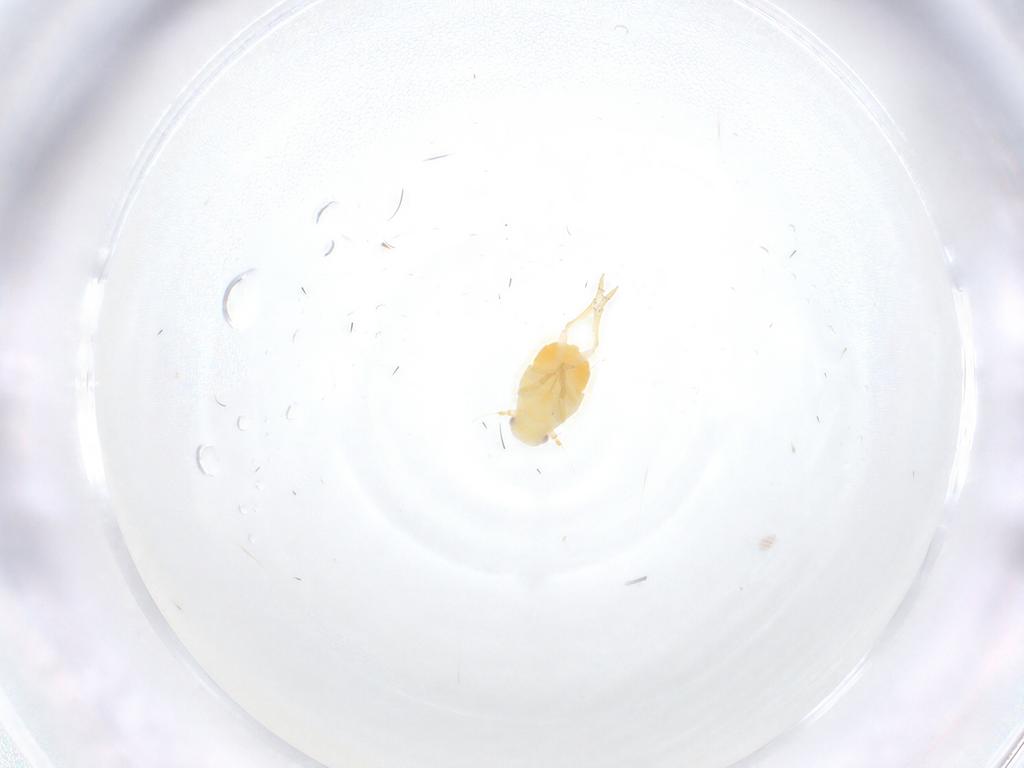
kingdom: Animalia
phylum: Arthropoda
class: Insecta
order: Hemiptera
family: Flatidae
